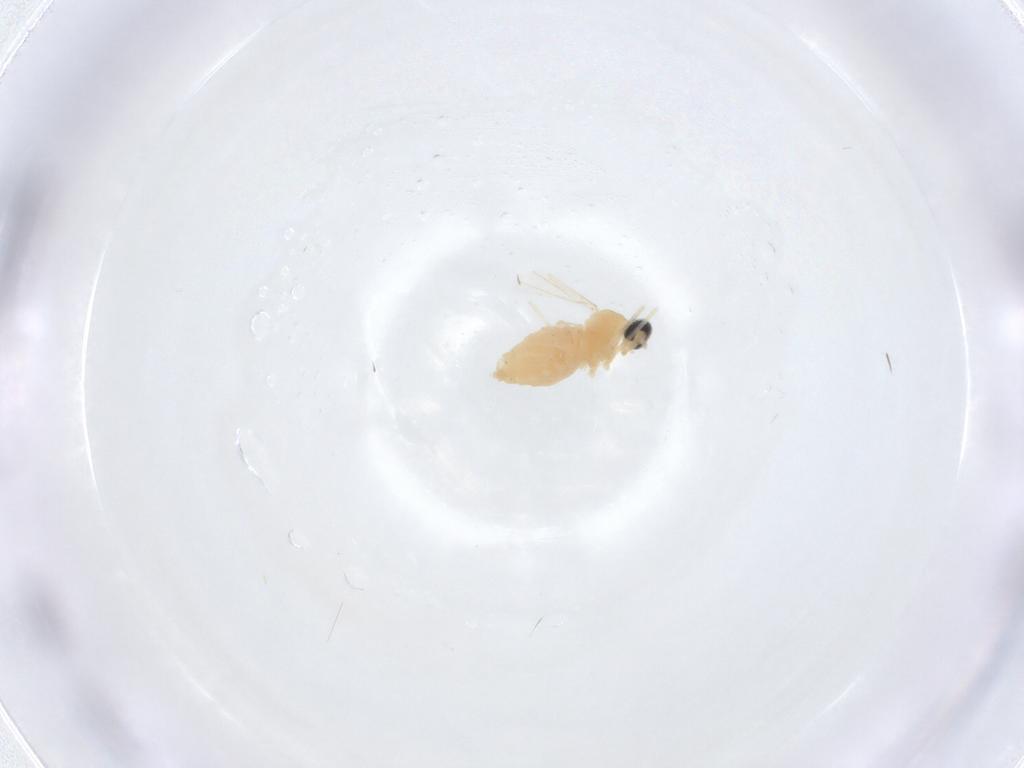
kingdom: Animalia
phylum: Arthropoda
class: Insecta
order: Diptera
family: Cecidomyiidae
